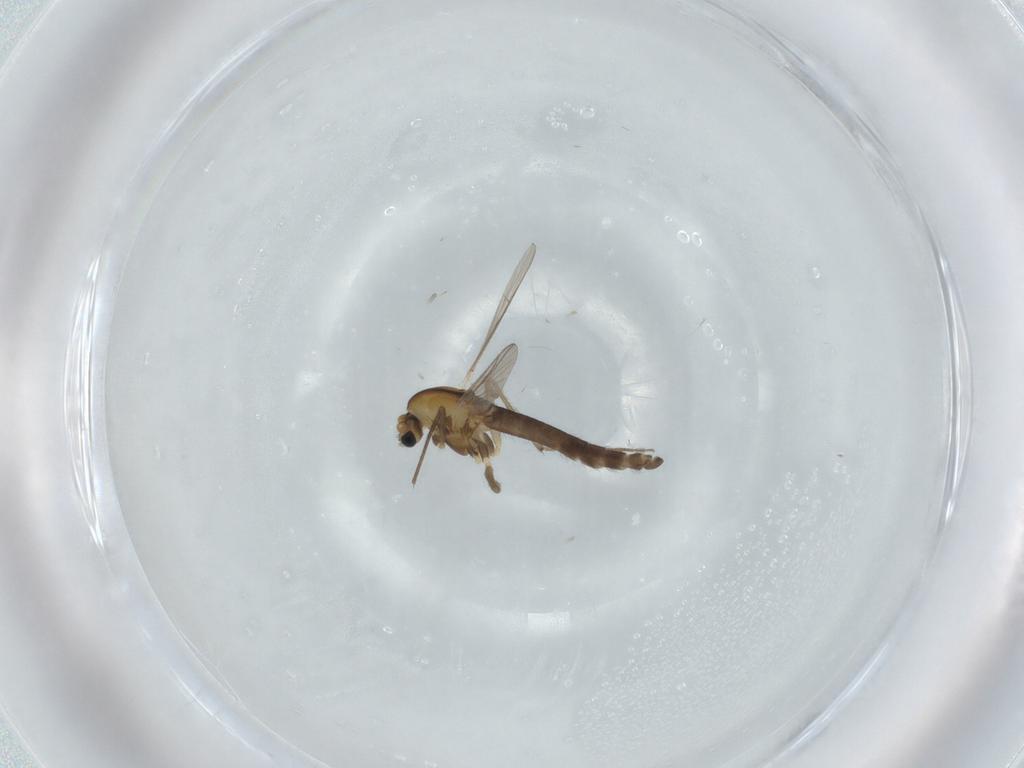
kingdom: Animalia
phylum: Arthropoda
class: Insecta
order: Diptera
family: Chironomidae
